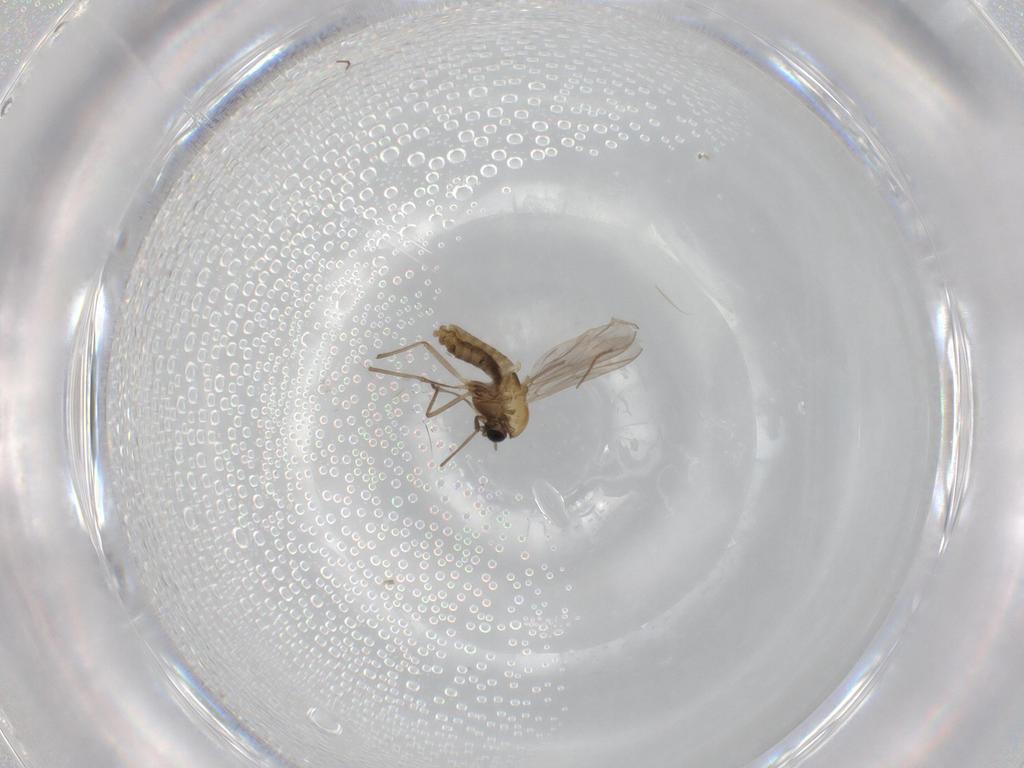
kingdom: Animalia
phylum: Arthropoda
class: Insecta
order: Diptera
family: Chironomidae
